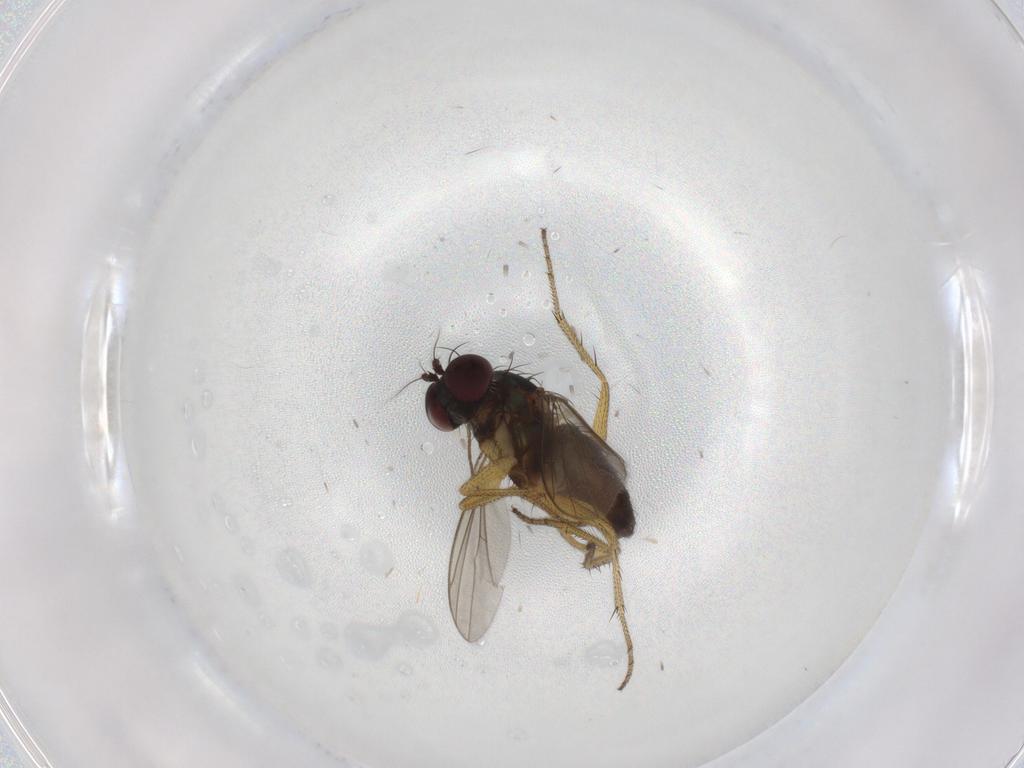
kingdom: Animalia
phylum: Arthropoda
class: Insecta
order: Diptera
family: Dolichopodidae
